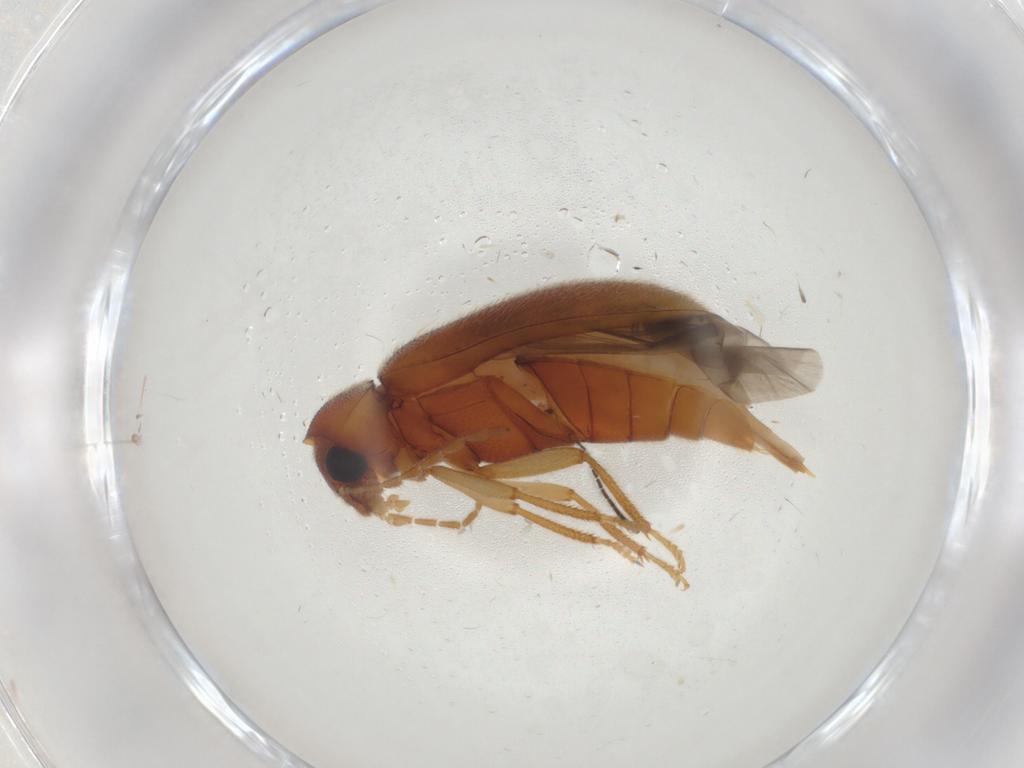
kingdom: Animalia
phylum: Arthropoda
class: Insecta
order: Coleoptera
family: Ptilodactylidae
